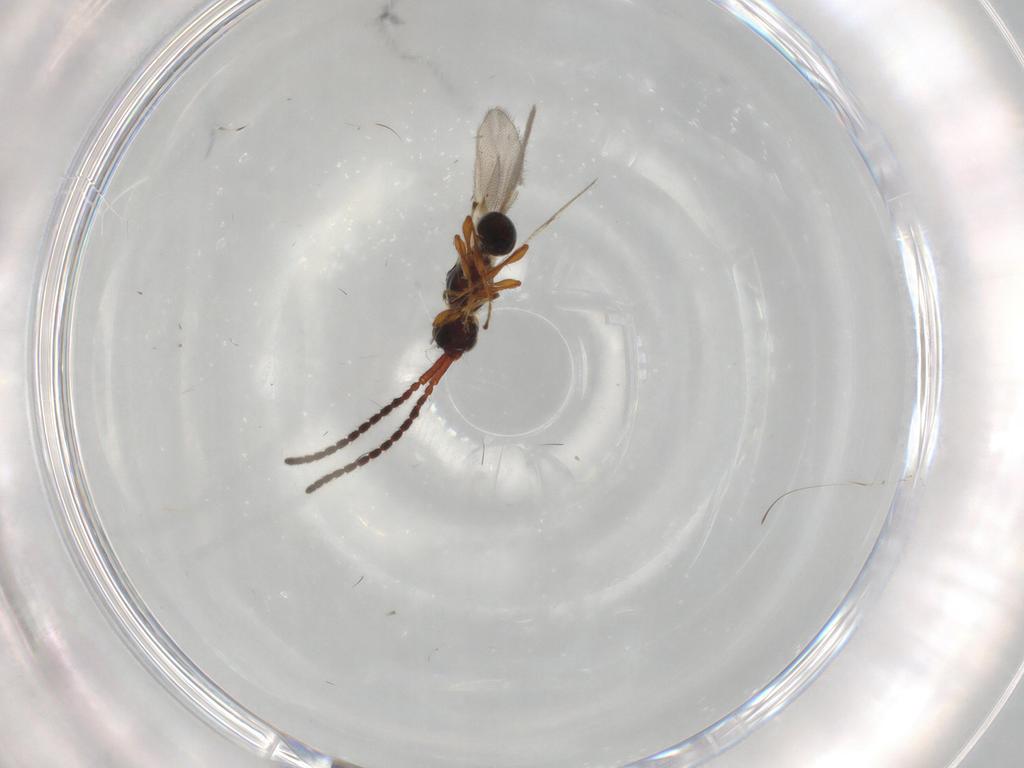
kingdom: Animalia
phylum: Arthropoda
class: Insecta
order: Hymenoptera
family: Diapriidae
